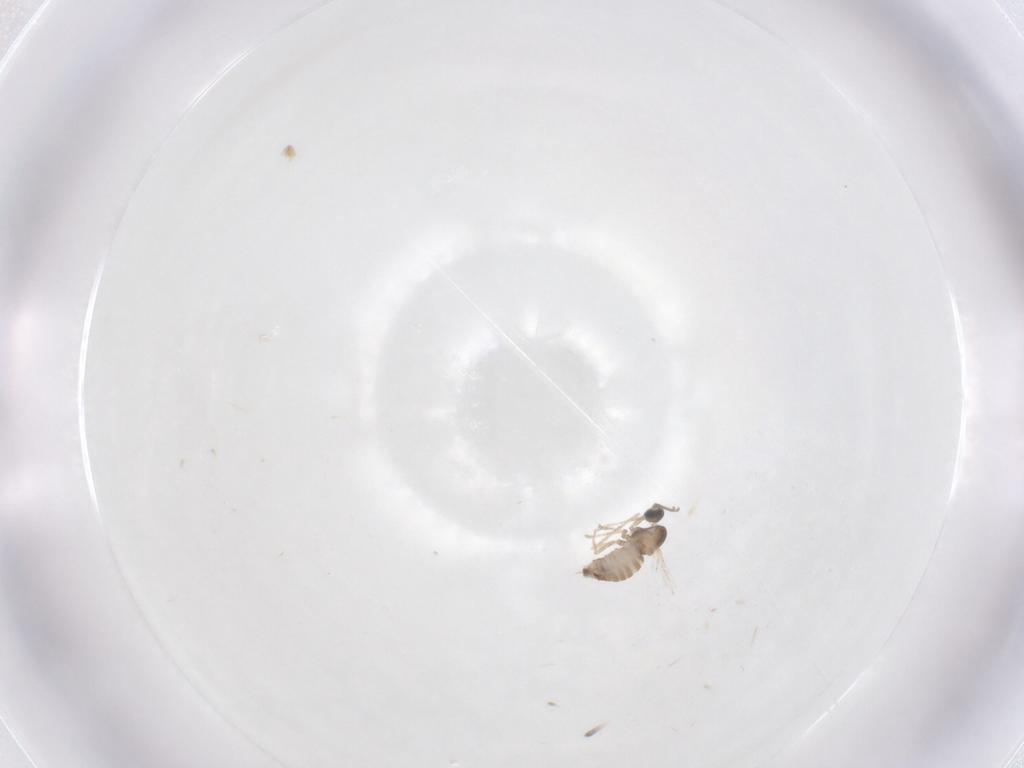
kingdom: Animalia
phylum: Arthropoda
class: Insecta
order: Diptera
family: Cecidomyiidae
